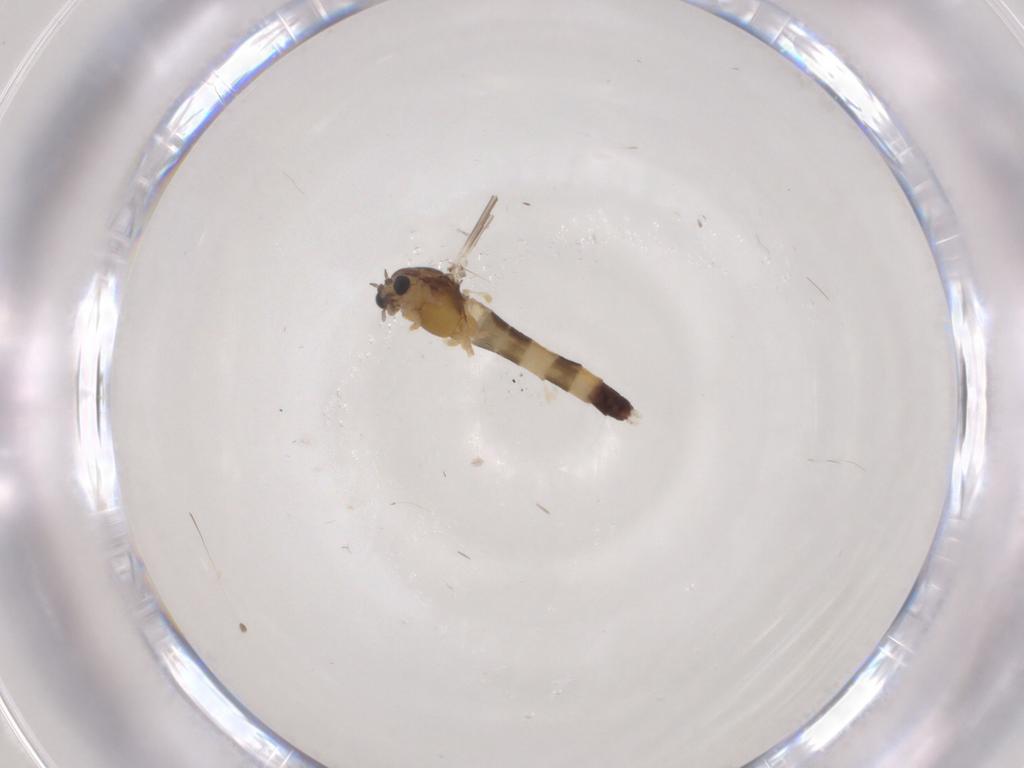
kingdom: Animalia
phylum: Arthropoda
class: Insecta
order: Diptera
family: Chironomidae
